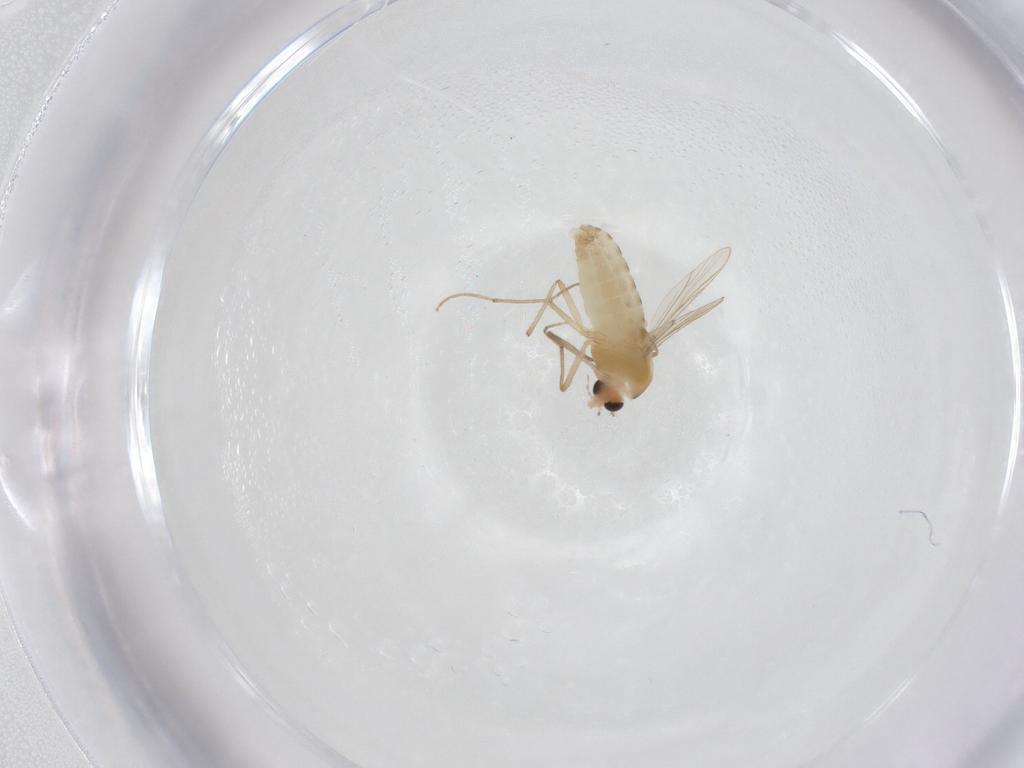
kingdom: Animalia
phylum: Arthropoda
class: Insecta
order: Diptera
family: Chironomidae
